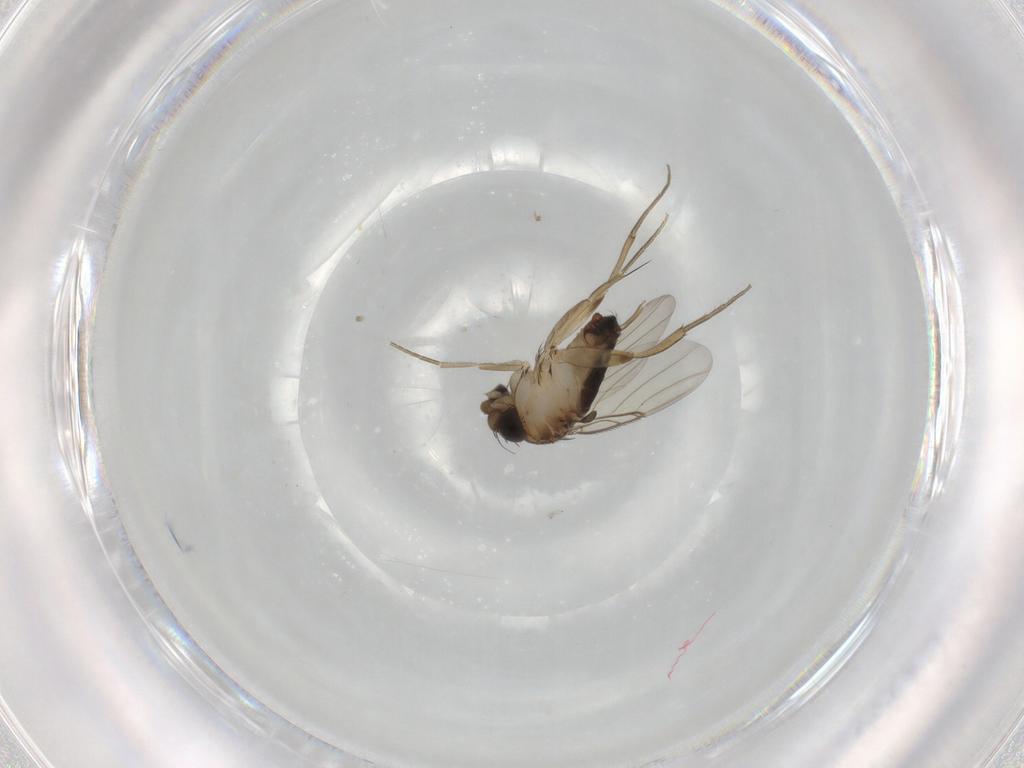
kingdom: Animalia
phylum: Arthropoda
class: Insecta
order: Diptera
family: Phoridae
